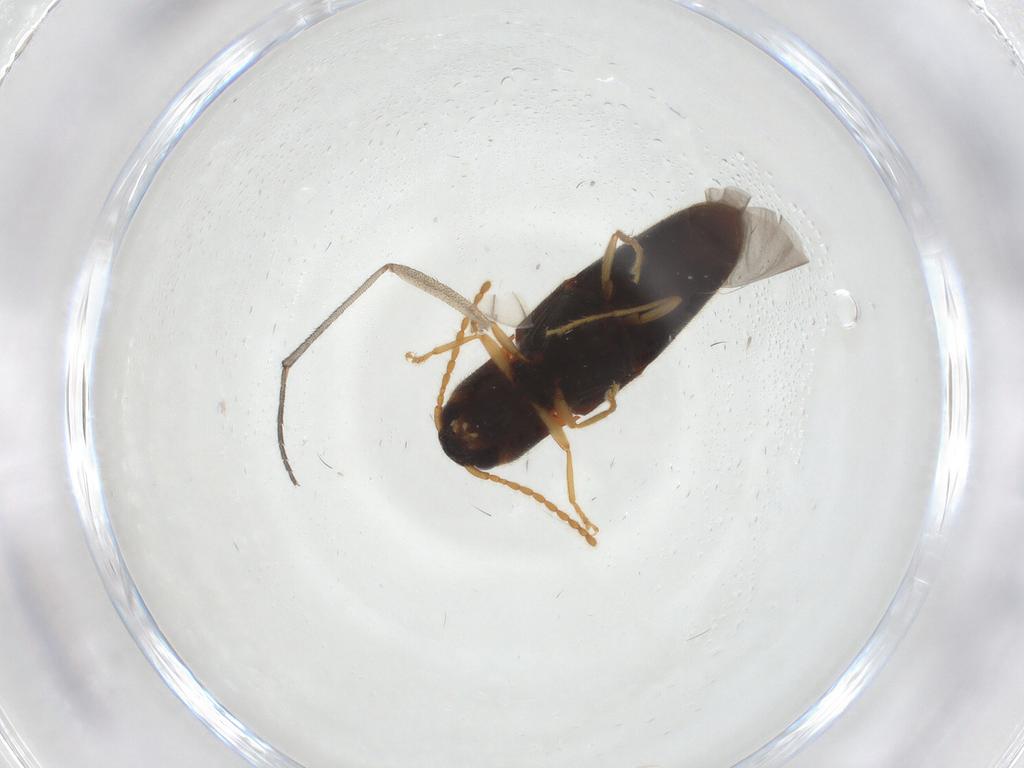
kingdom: Animalia
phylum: Arthropoda
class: Insecta
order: Coleoptera
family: Elateridae
